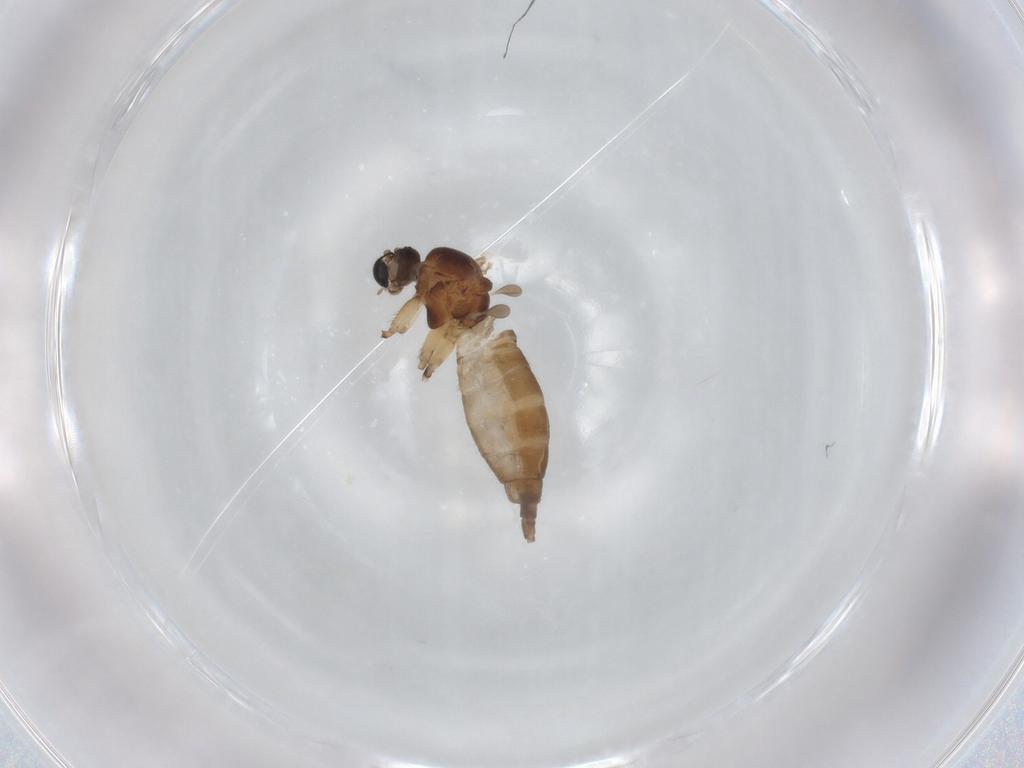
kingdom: Animalia
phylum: Arthropoda
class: Insecta
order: Diptera
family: Sciaridae
